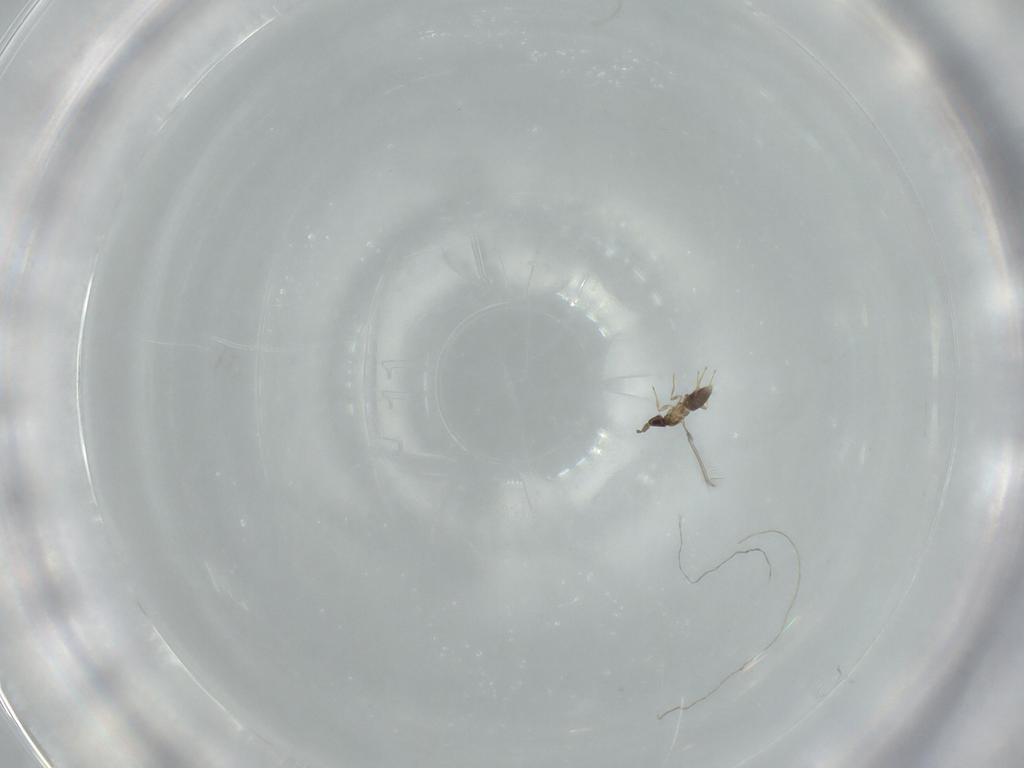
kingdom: Animalia
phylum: Arthropoda
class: Insecta
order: Hymenoptera
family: Mymaridae
